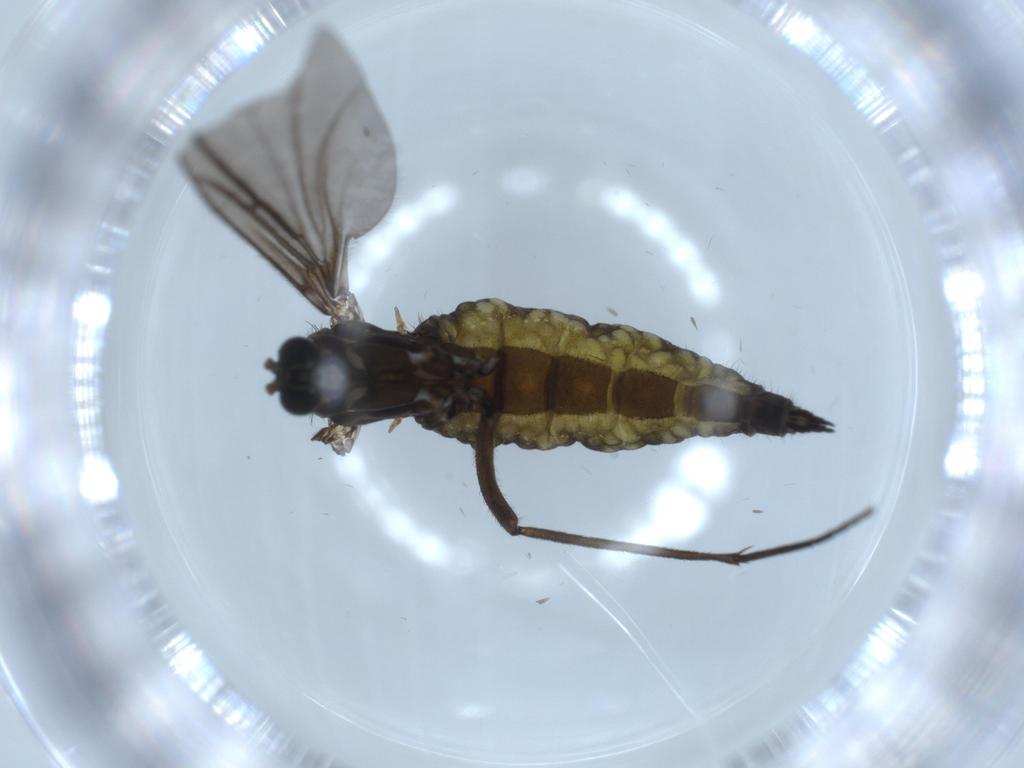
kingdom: Animalia
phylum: Arthropoda
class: Insecta
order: Diptera
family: Sciaridae
